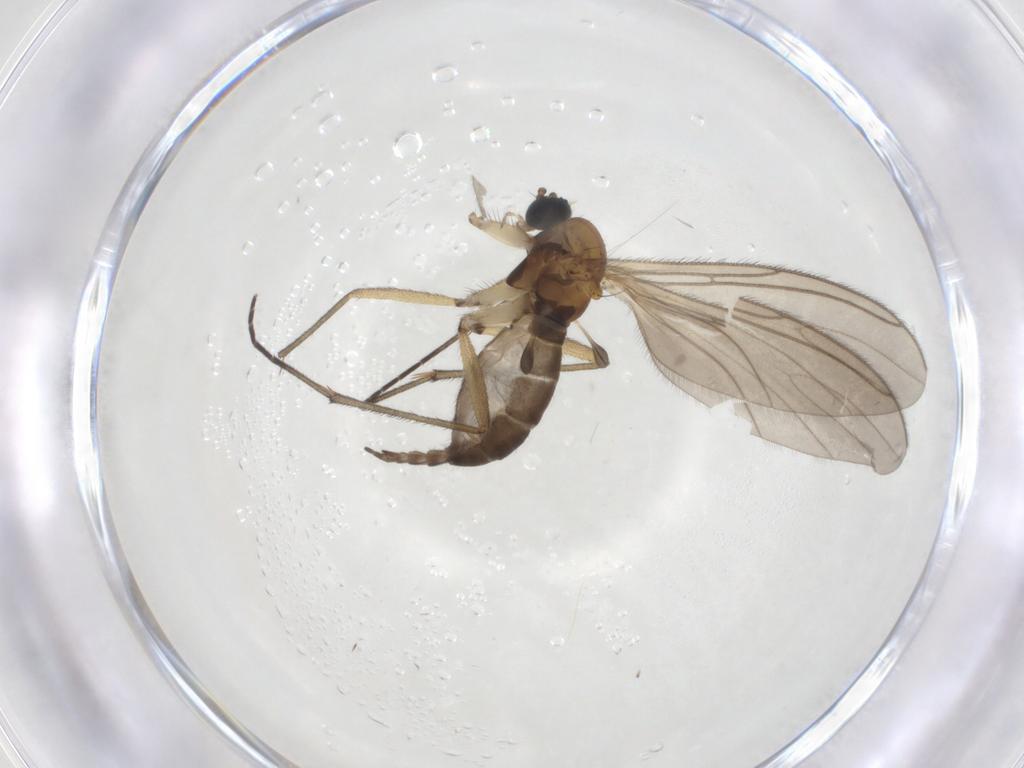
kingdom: Animalia
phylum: Arthropoda
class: Insecta
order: Diptera
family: Sciaridae
